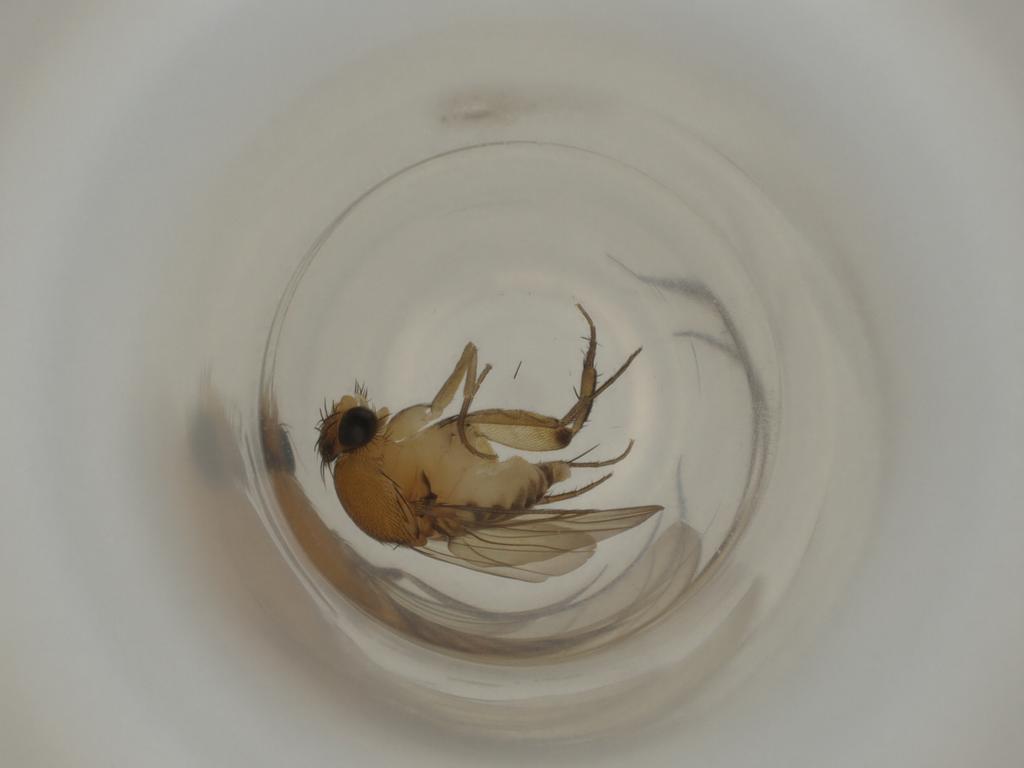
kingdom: Animalia
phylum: Arthropoda
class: Insecta
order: Diptera
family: Phoridae
